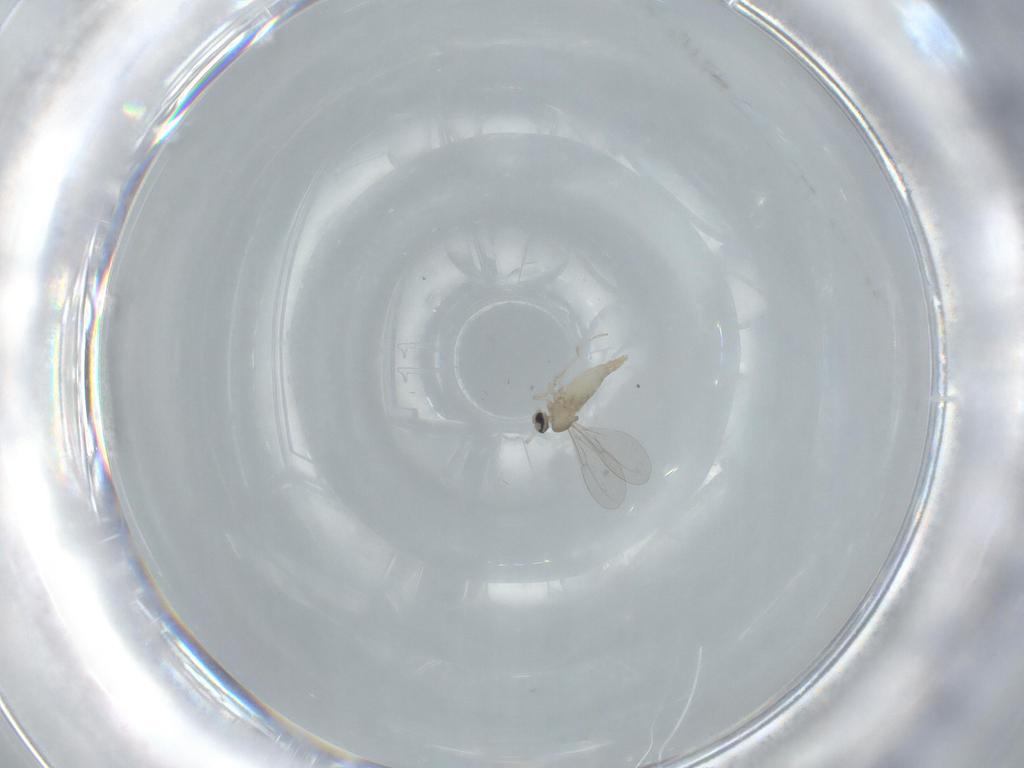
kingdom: Animalia
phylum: Arthropoda
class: Insecta
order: Diptera
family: Cecidomyiidae
